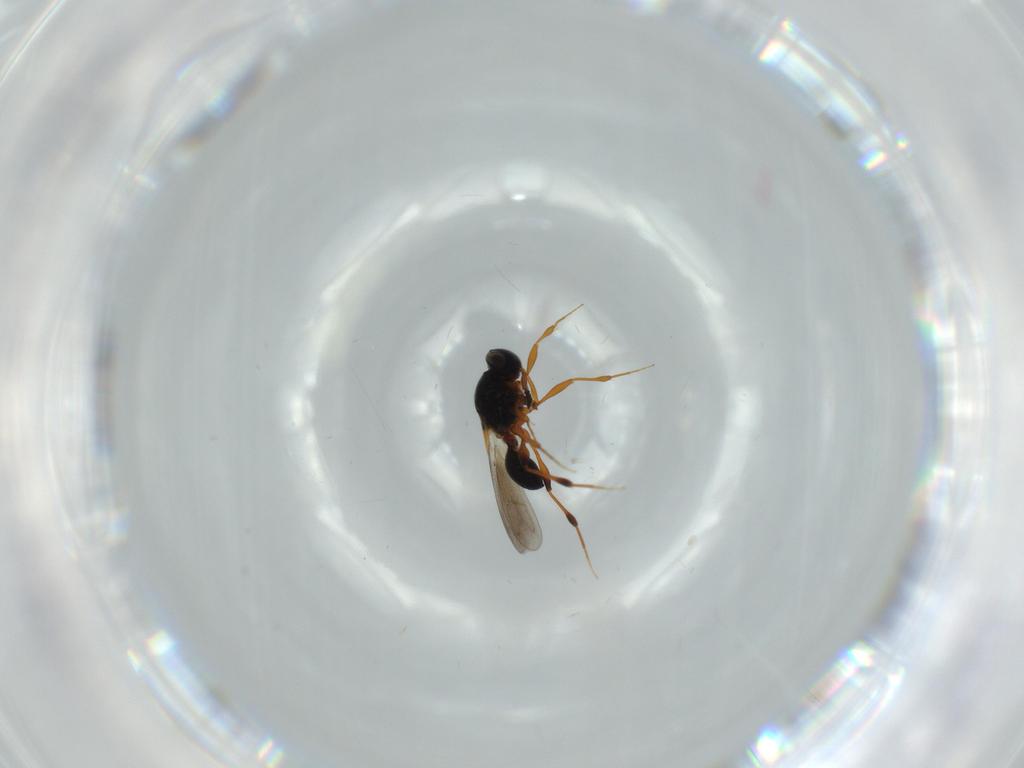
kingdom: Animalia
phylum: Arthropoda
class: Insecta
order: Hymenoptera
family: Platygastridae
